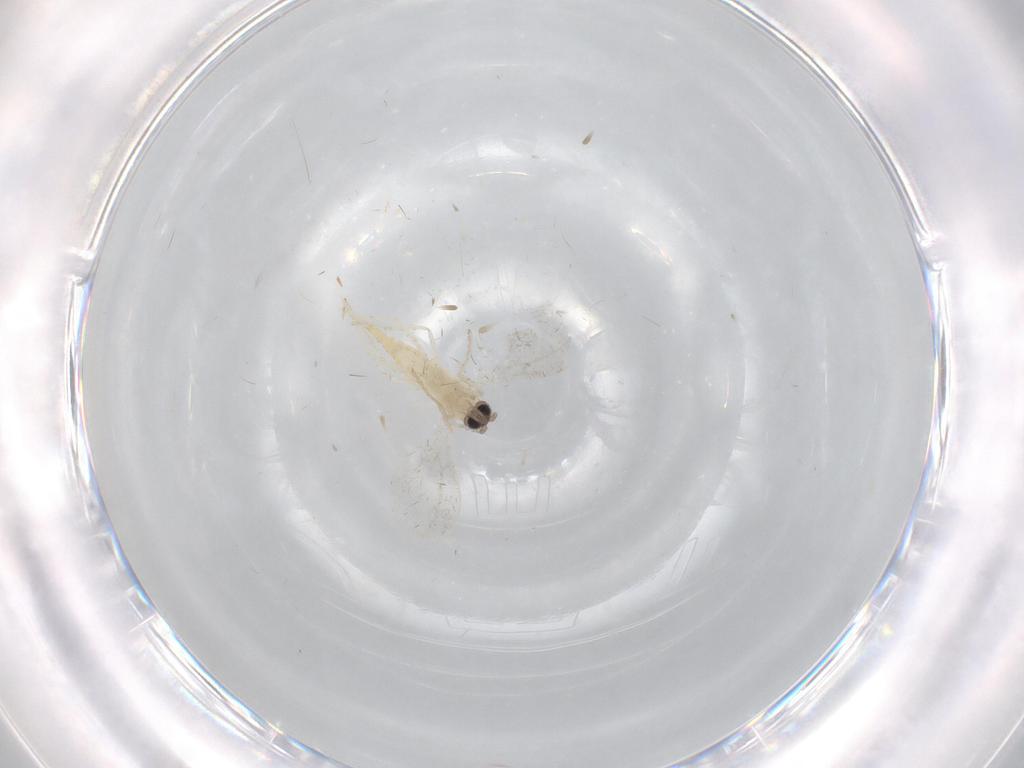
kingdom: Animalia
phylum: Arthropoda
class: Insecta
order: Diptera
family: Cecidomyiidae
